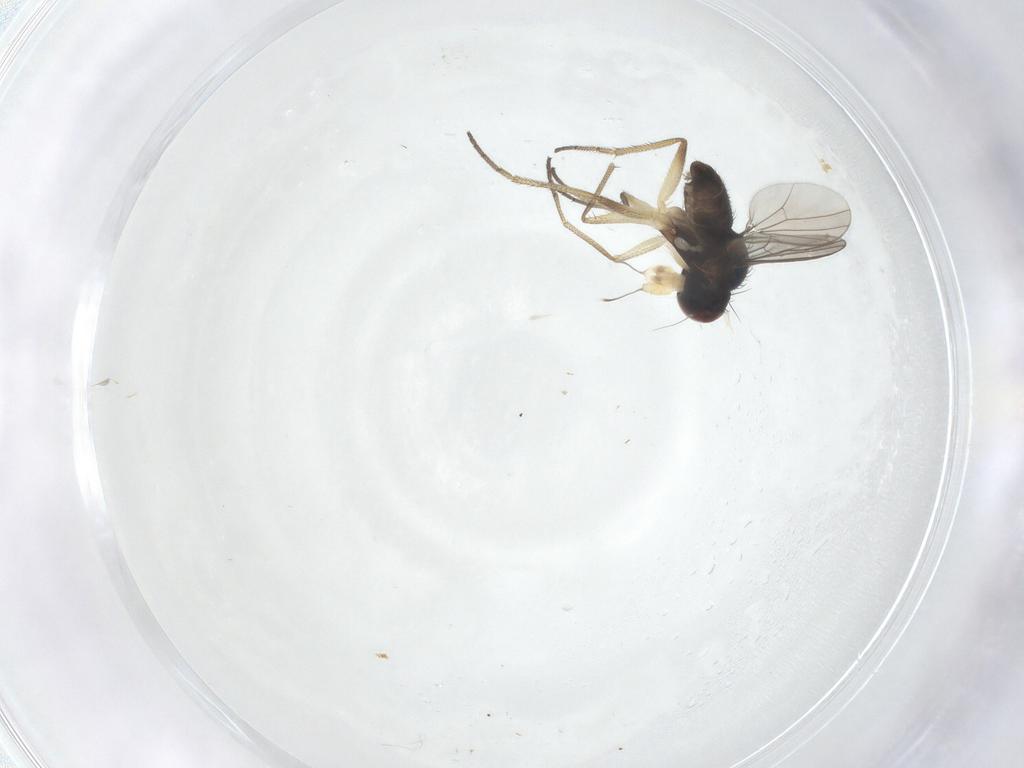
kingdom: Animalia
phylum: Arthropoda
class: Insecta
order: Diptera
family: Dolichopodidae
